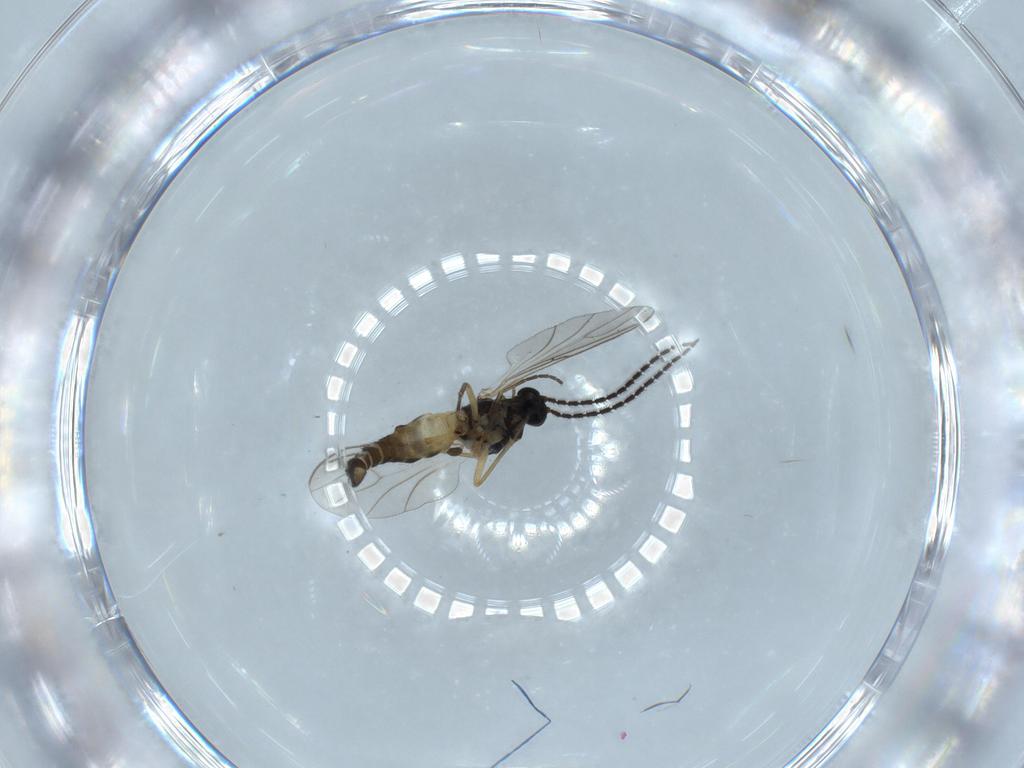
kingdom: Animalia
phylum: Arthropoda
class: Insecta
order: Diptera
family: Sciaridae
